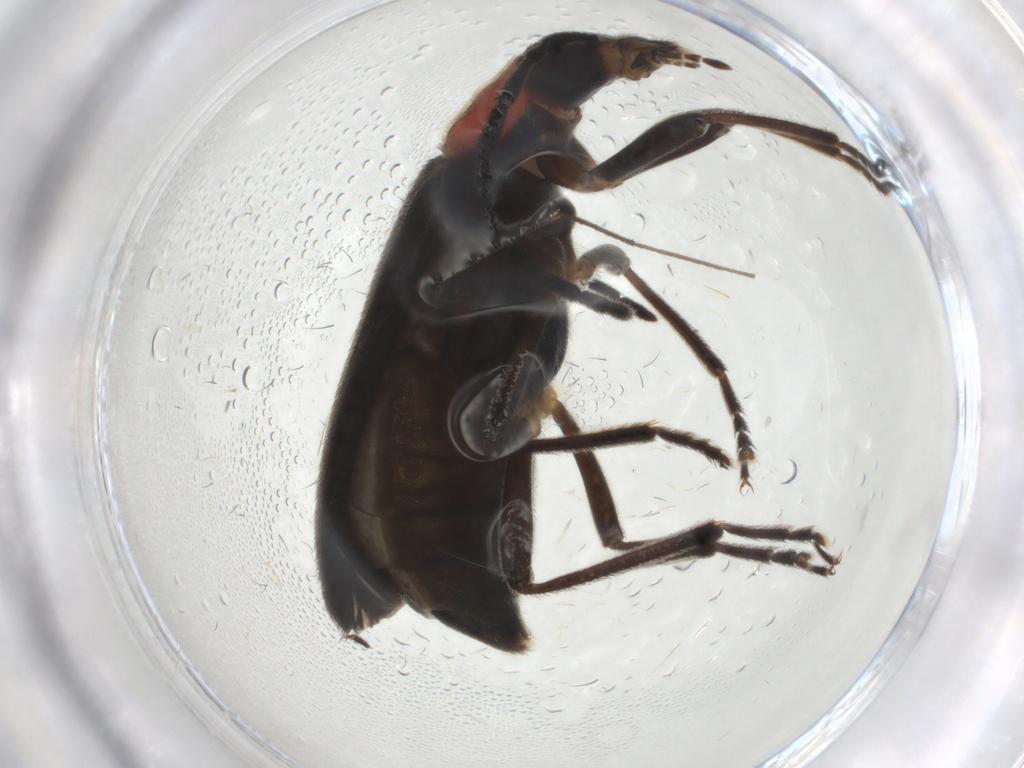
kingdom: Animalia
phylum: Arthropoda
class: Insecta
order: Coleoptera
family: Oedemeridae
